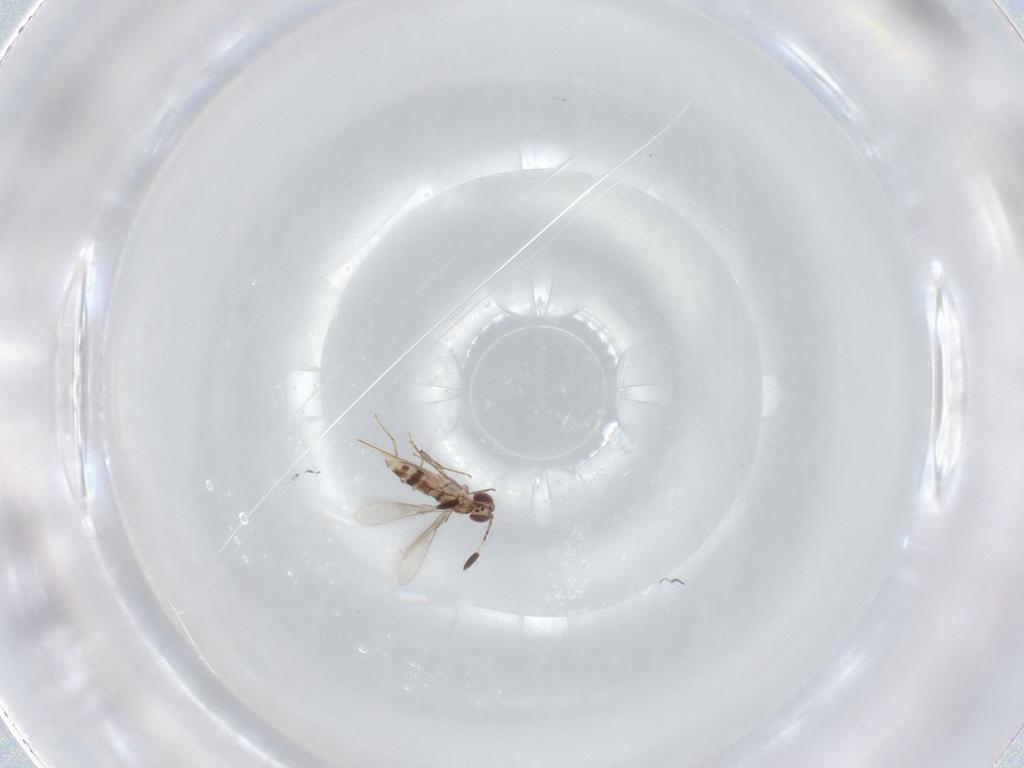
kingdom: Animalia
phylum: Arthropoda
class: Insecta
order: Hymenoptera
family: Mymaridae
